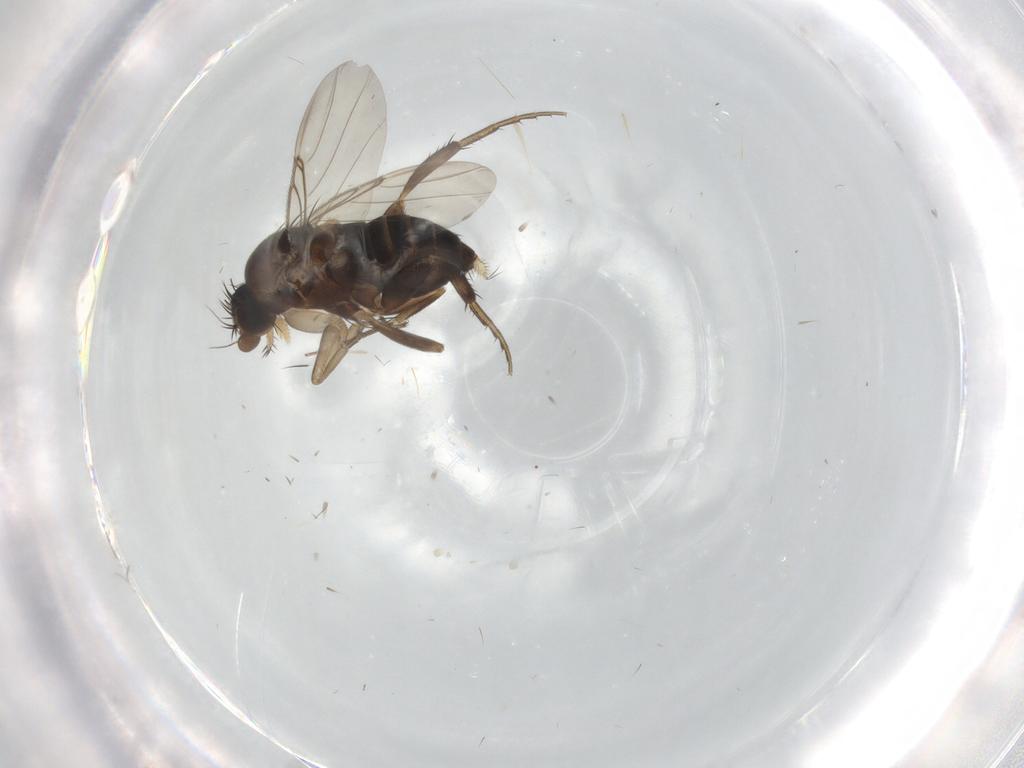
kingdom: Animalia
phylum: Arthropoda
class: Insecta
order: Diptera
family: Phoridae
